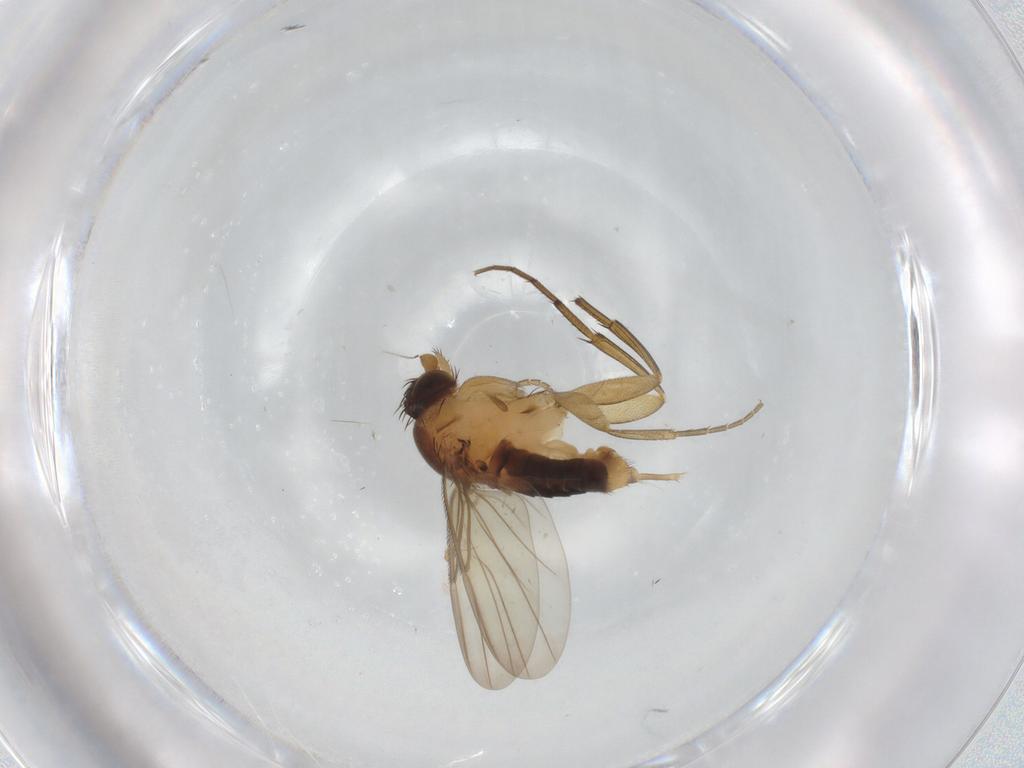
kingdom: Animalia
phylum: Arthropoda
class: Insecta
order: Diptera
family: Phoridae
